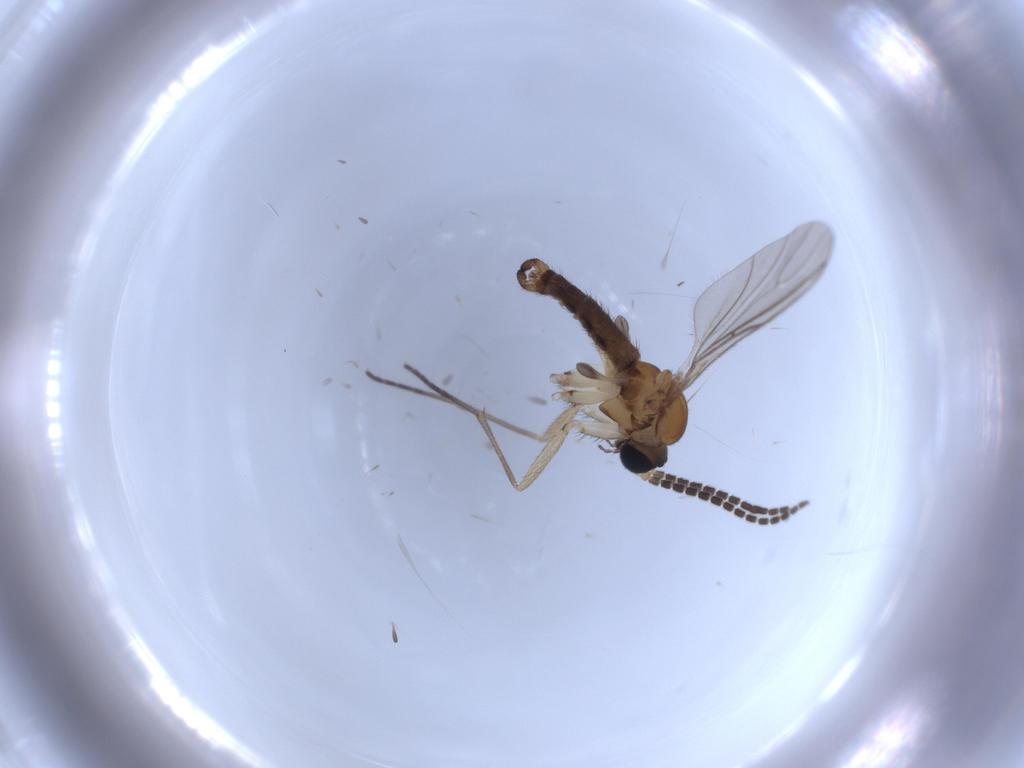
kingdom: Animalia
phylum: Arthropoda
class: Insecta
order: Diptera
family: Sciaridae
